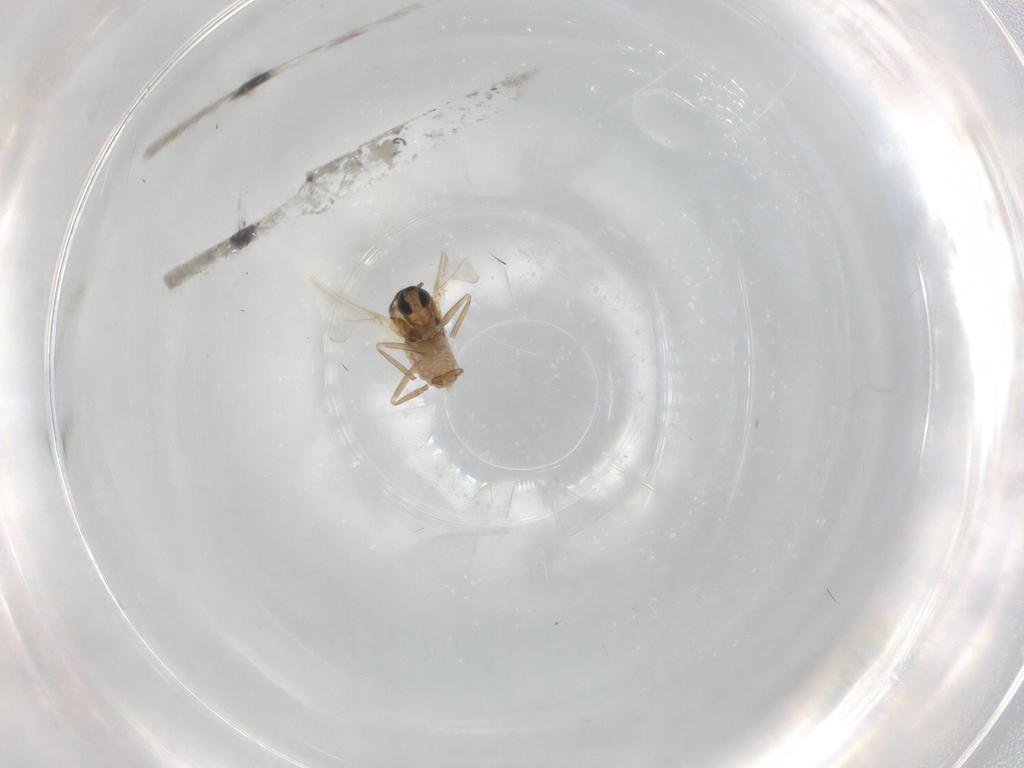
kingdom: Animalia
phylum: Arthropoda
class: Insecta
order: Diptera
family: Cecidomyiidae
